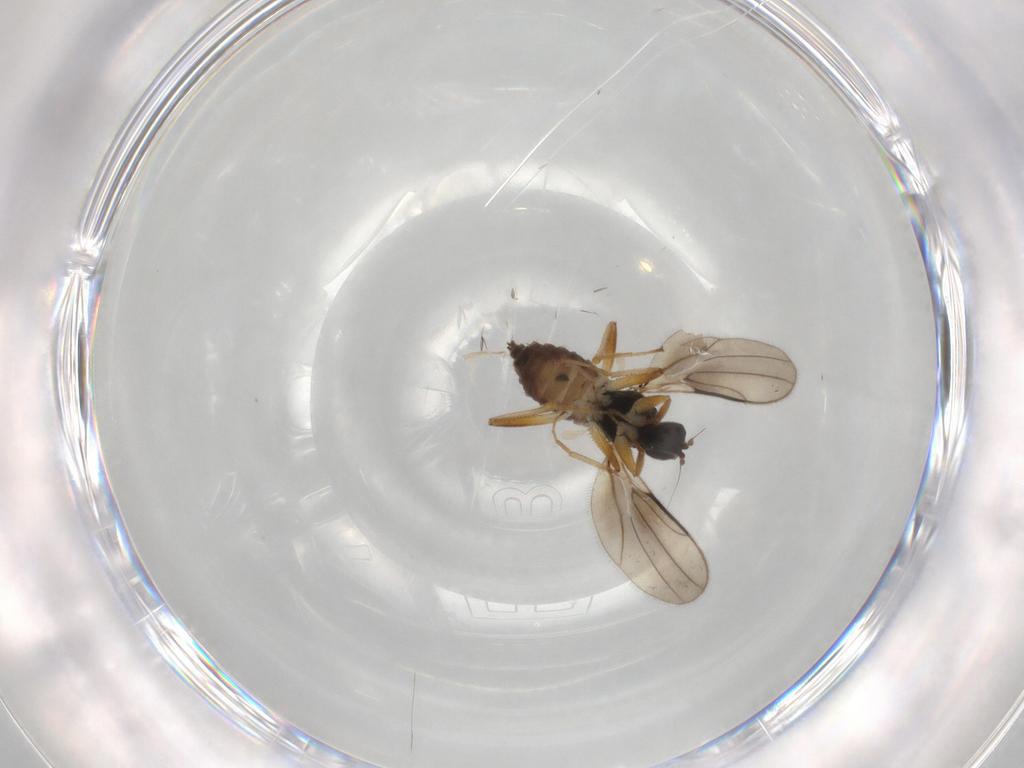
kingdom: Animalia
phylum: Arthropoda
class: Insecta
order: Diptera
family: Hybotidae
